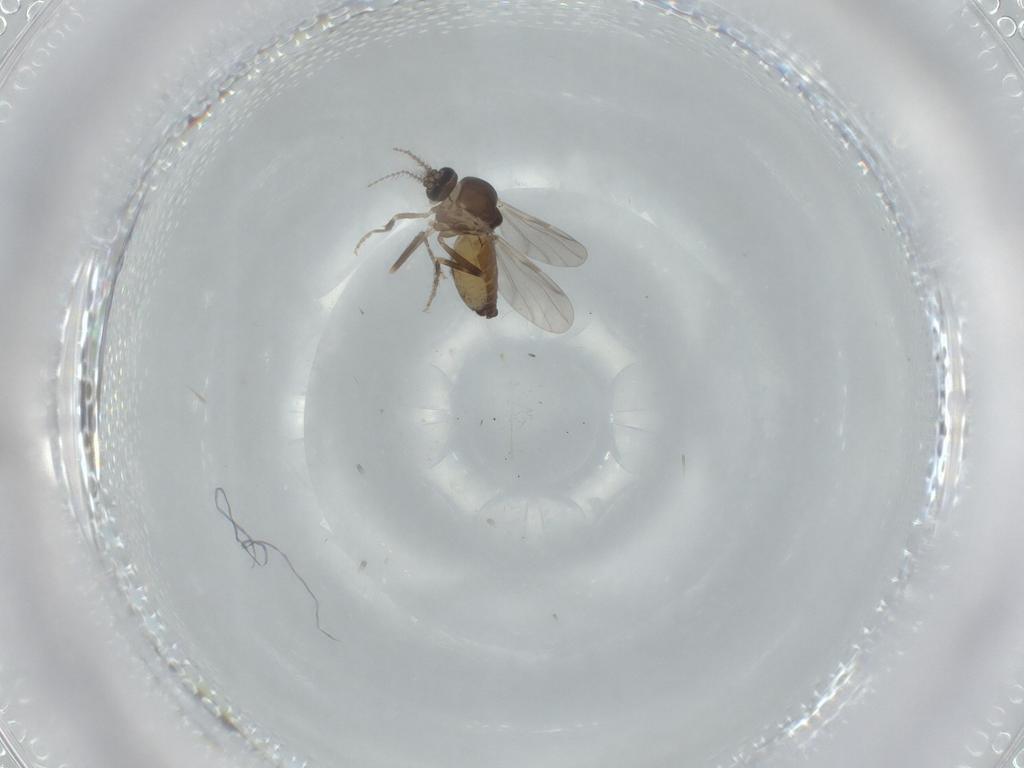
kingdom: Animalia
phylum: Arthropoda
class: Insecta
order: Diptera
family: Ceratopogonidae
